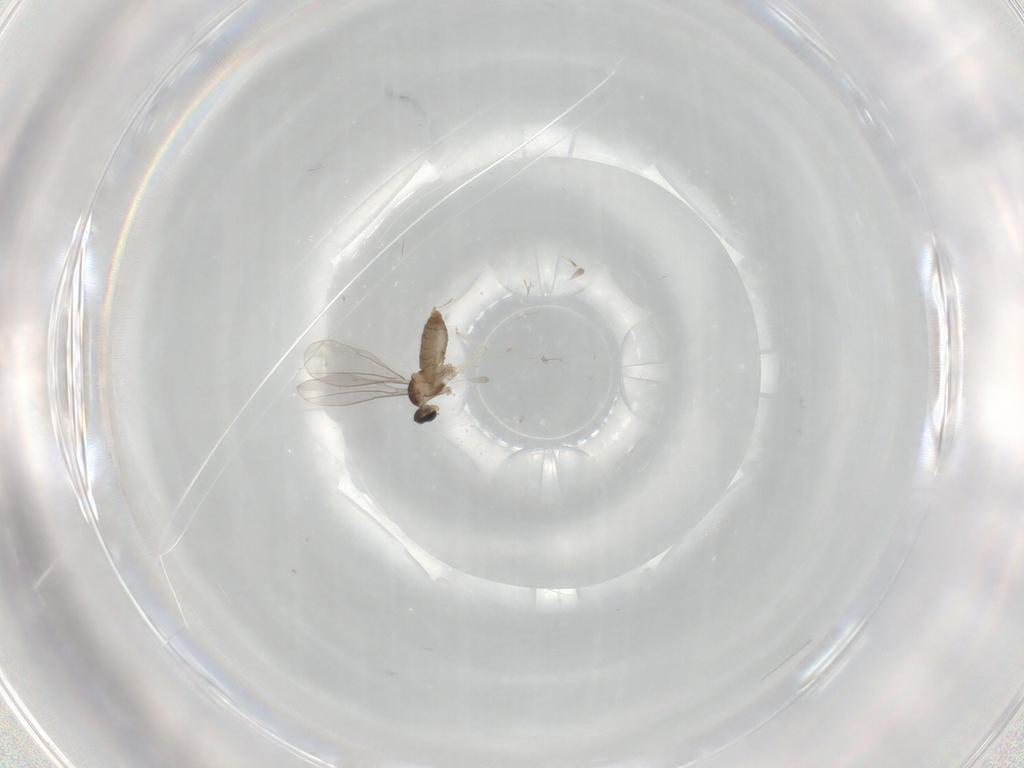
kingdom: Animalia
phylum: Arthropoda
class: Insecta
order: Diptera
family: Cecidomyiidae
